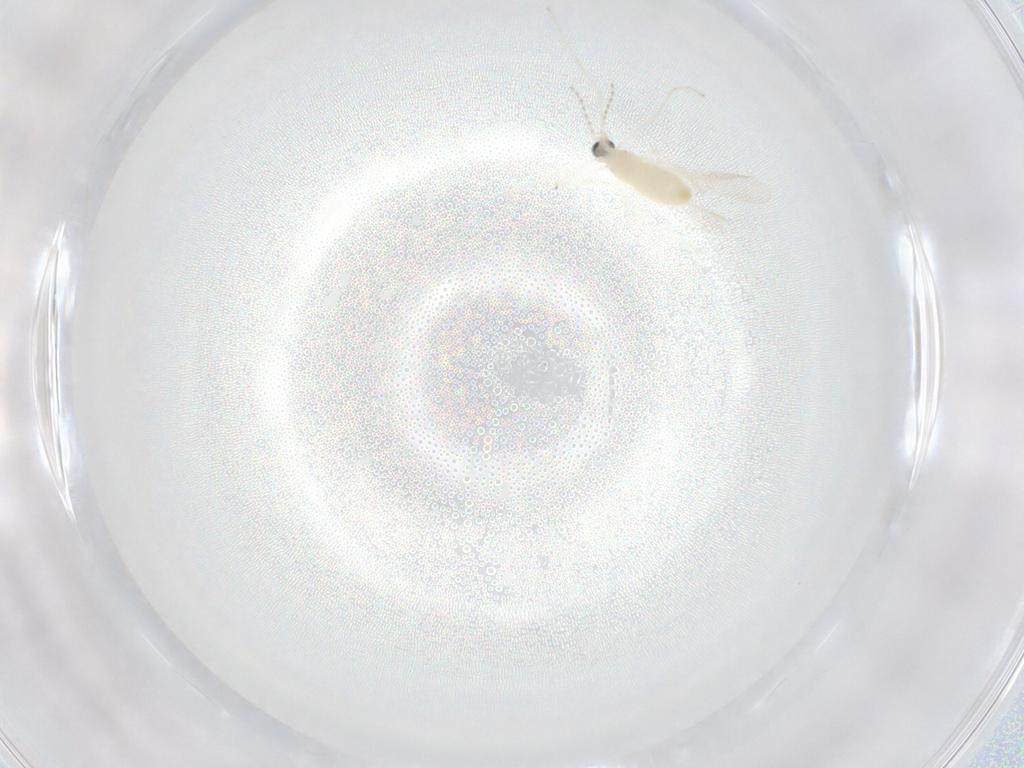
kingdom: Animalia
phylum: Arthropoda
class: Insecta
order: Diptera
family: Cecidomyiidae
